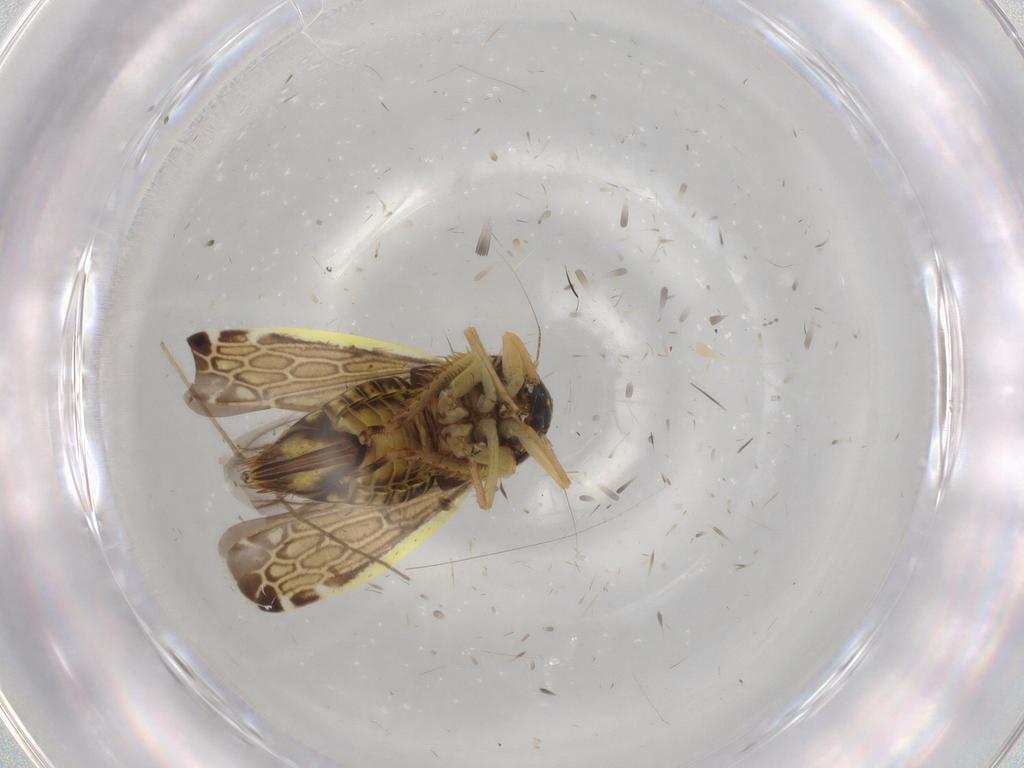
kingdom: Animalia
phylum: Arthropoda
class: Insecta
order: Hemiptera
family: Cicadellidae
